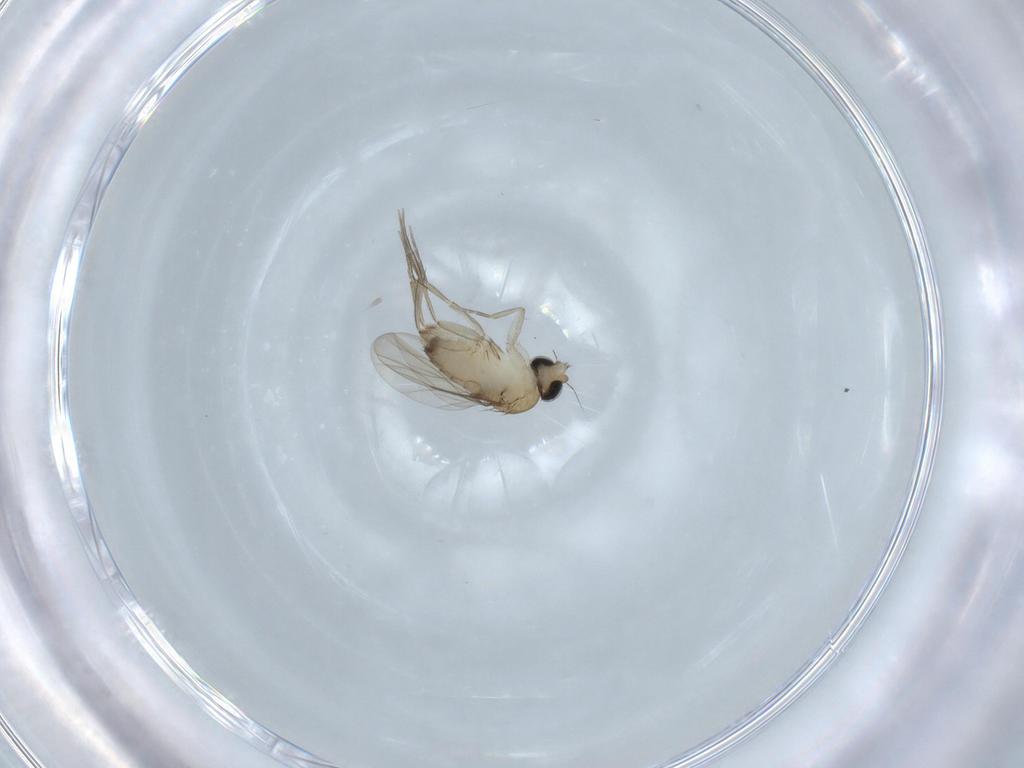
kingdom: Animalia
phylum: Arthropoda
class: Insecta
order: Diptera
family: Phoridae
